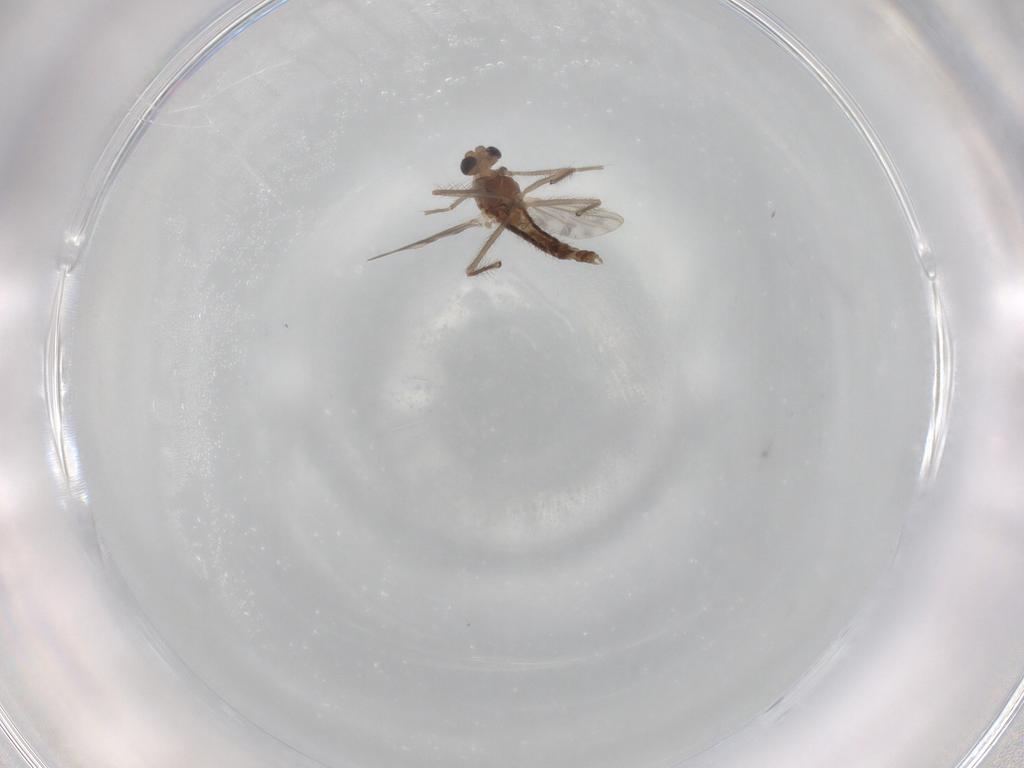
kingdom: Animalia
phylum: Arthropoda
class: Insecta
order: Diptera
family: Chironomidae
